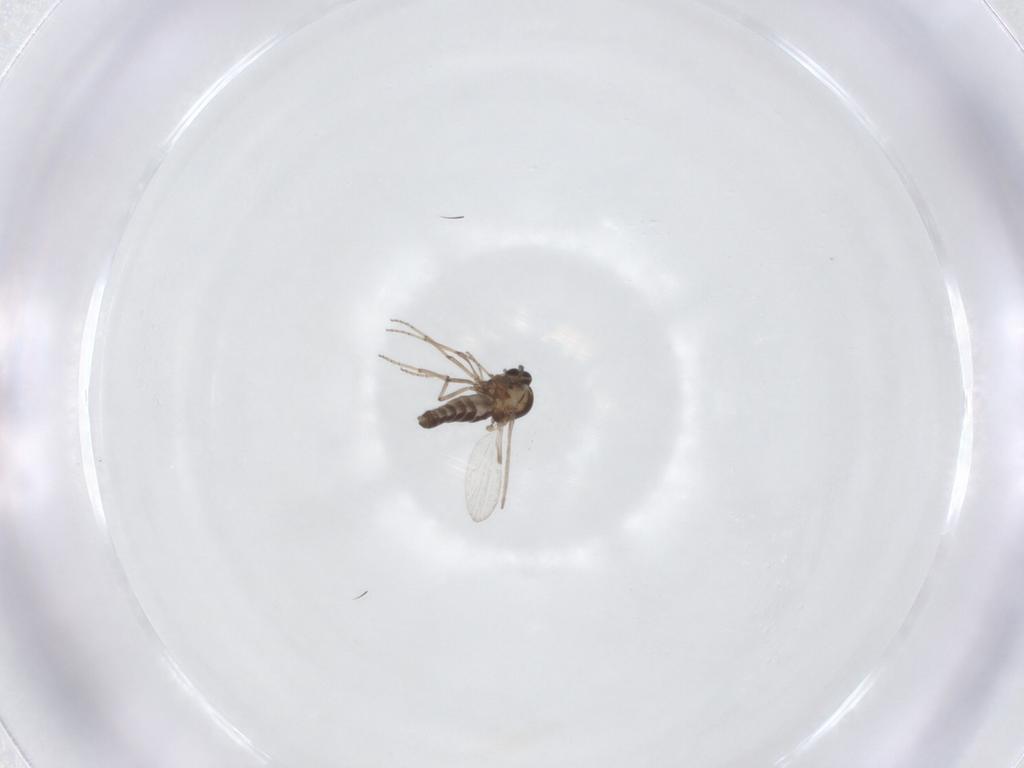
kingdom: Animalia
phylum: Arthropoda
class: Insecta
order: Diptera
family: Ceratopogonidae
